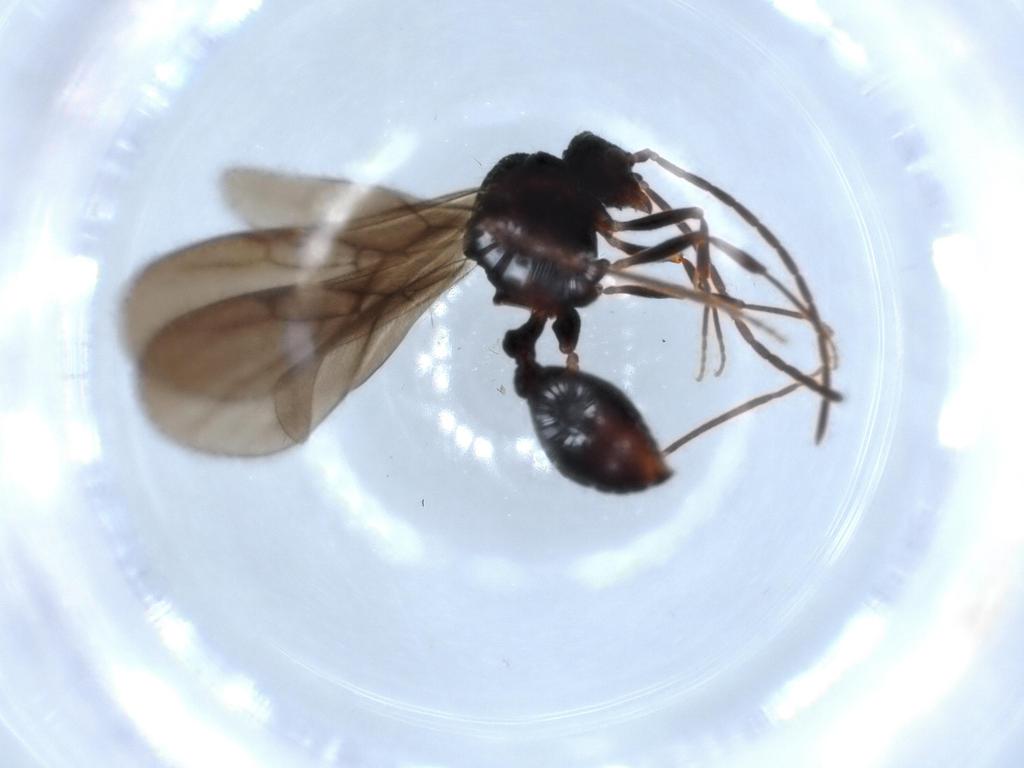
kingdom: Animalia
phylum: Arthropoda
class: Insecta
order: Hymenoptera
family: Formicidae
